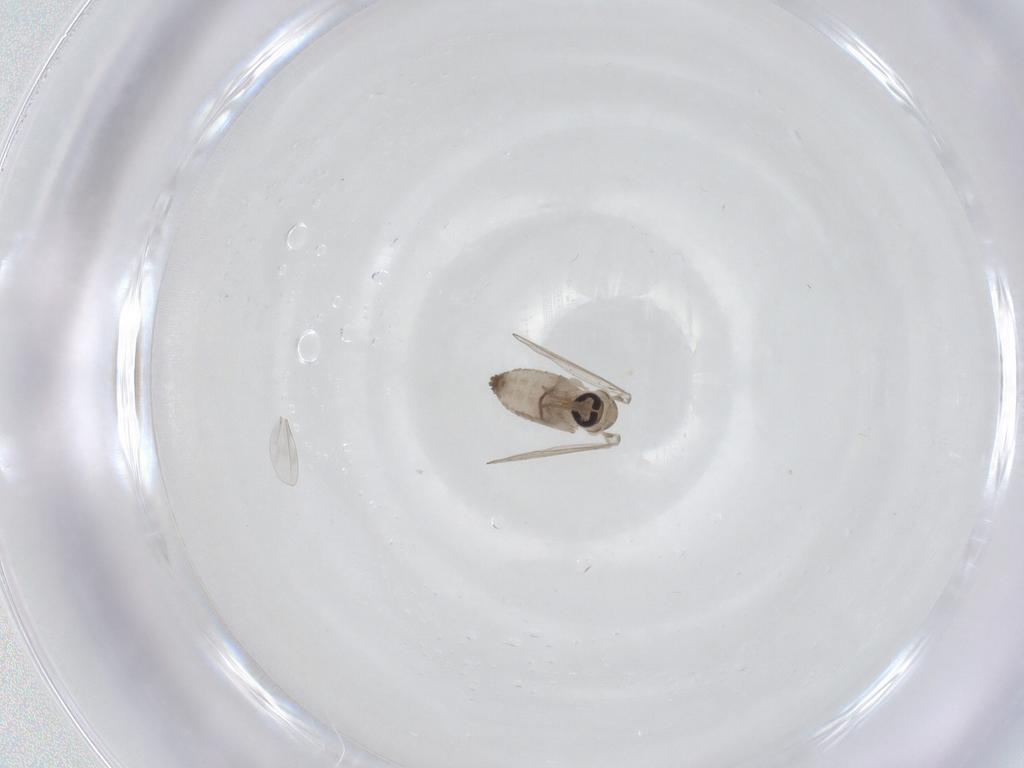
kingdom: Animalia
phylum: Arthropoda
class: Insecta
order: Diptera
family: Psychodidae
